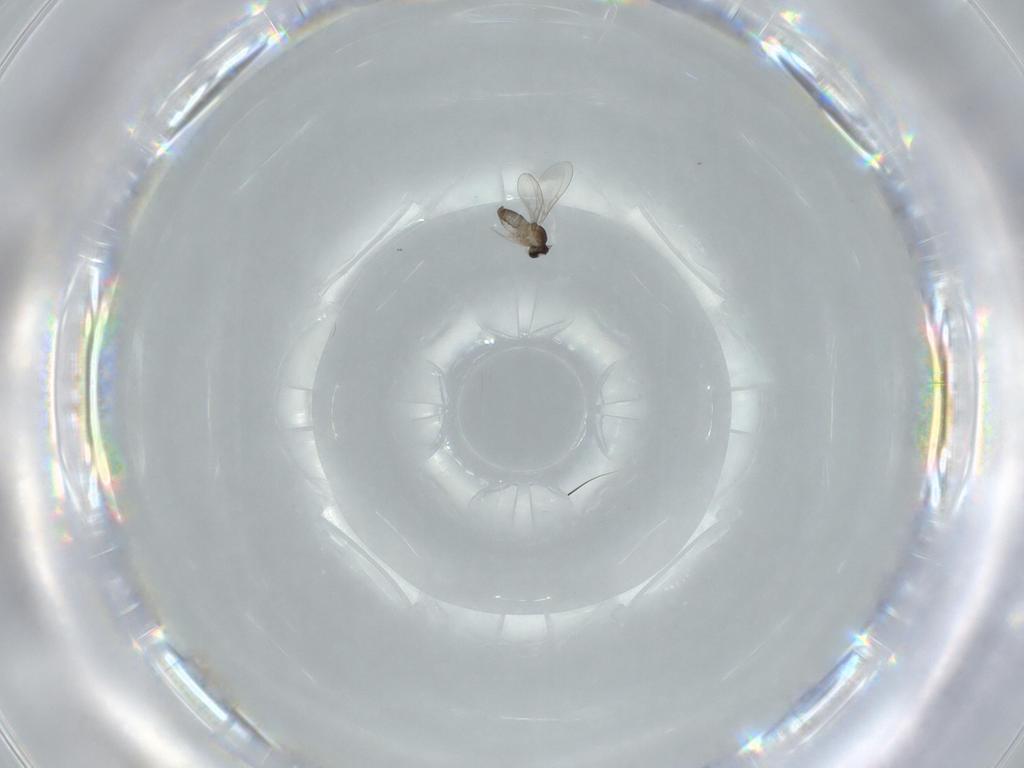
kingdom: Animalia
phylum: Arthropoda
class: Insecta
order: Diptera
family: Cecidomyiidae
